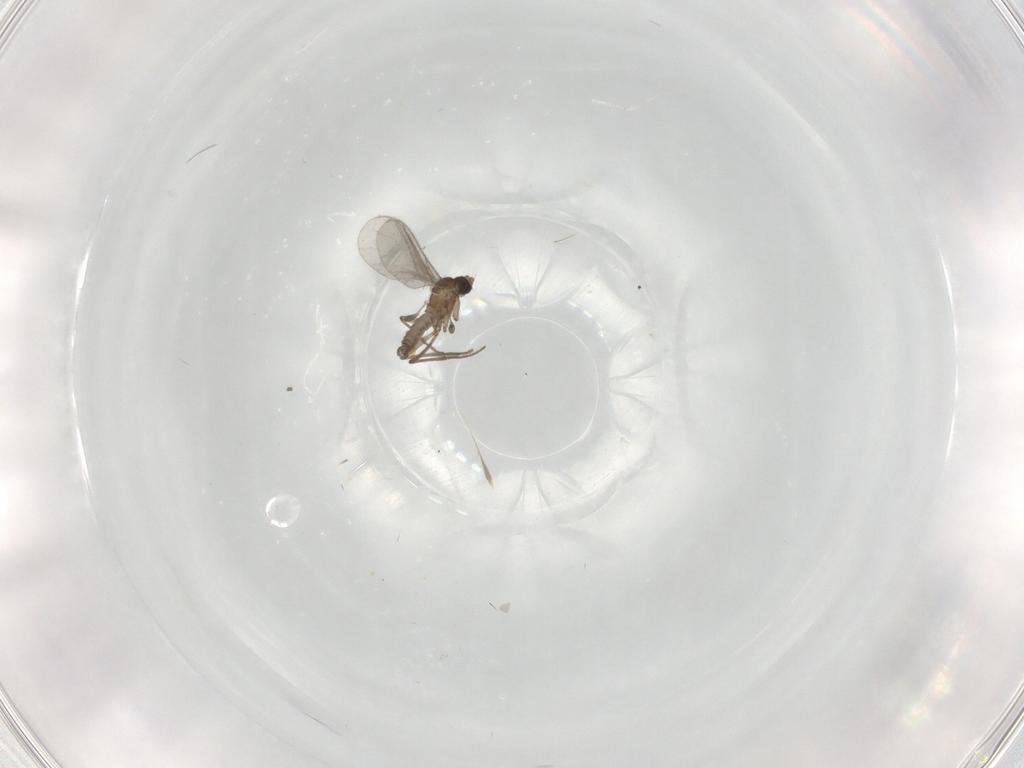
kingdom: Animalia
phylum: Arthropoda
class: Insecta
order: Diptera
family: Sciaridae
